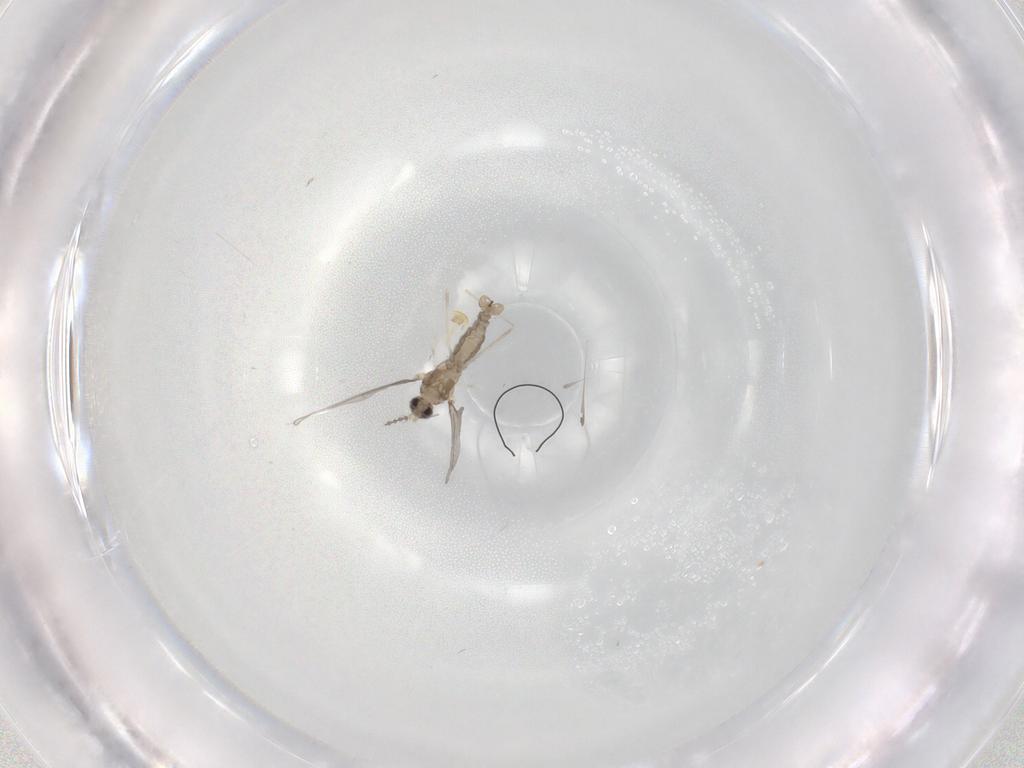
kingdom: Animalia
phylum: Arthropoda
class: Insecta
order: Diptera
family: Cecidomyiidae
